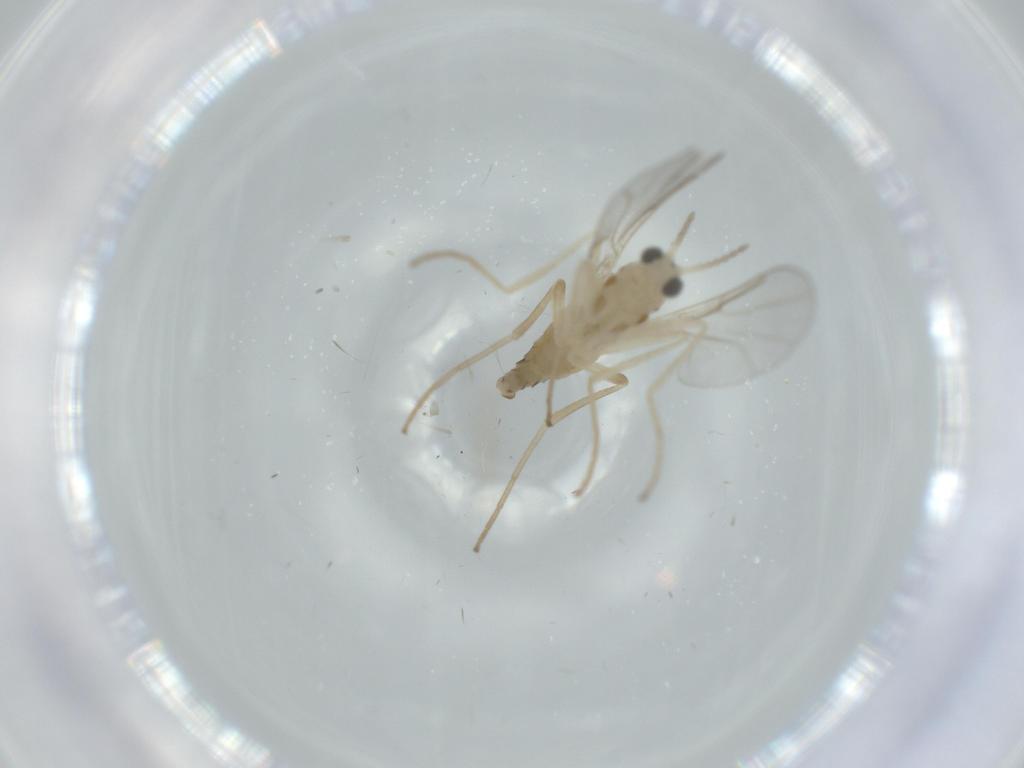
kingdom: Animalia
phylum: Arthropoda
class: Insecta
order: Diptera
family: Cecidomyiidae
